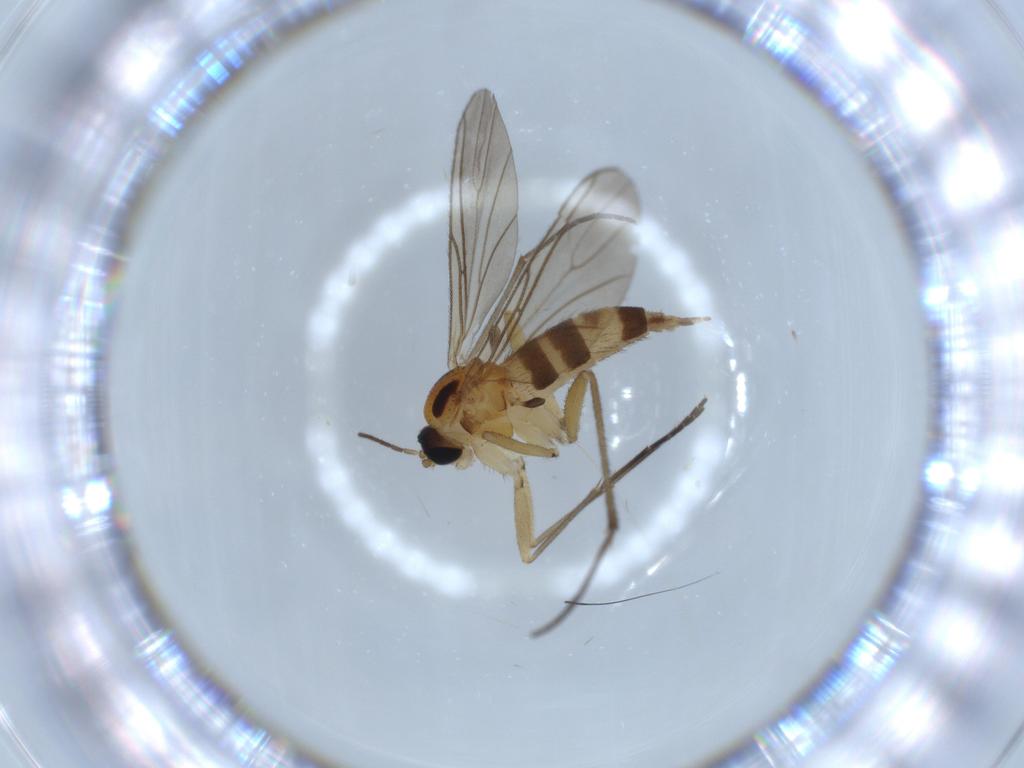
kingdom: Animalia
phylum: Arthropoda
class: Insecta
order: Diptera
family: Sciaridae
